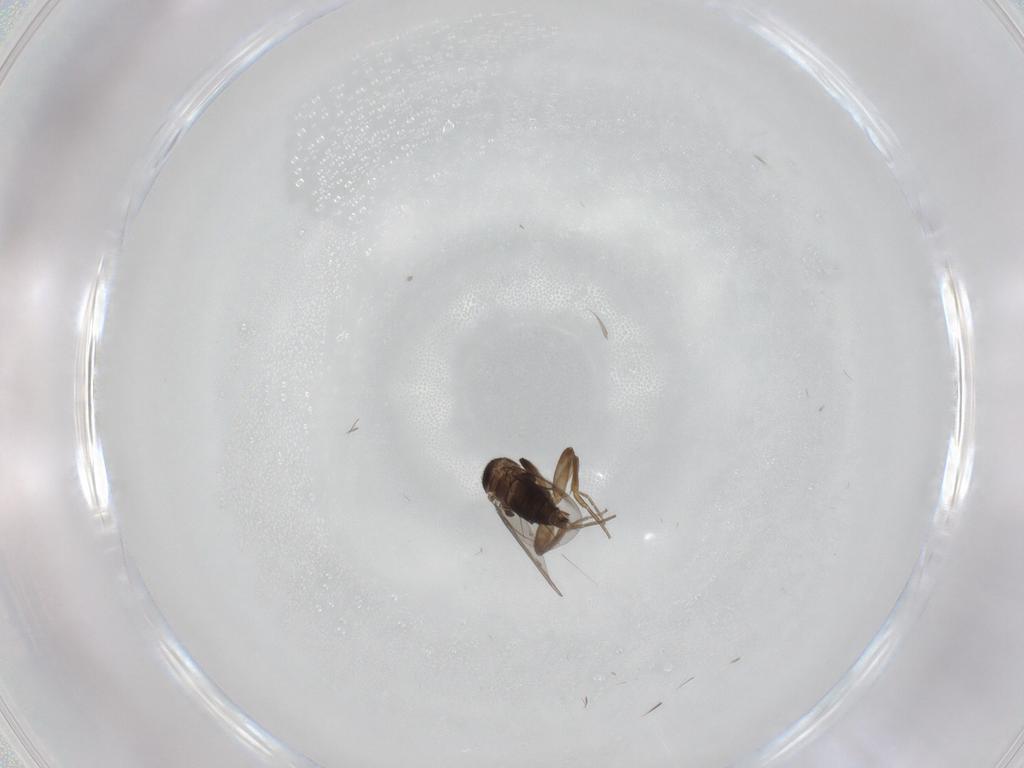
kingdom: Animalia
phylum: Arthropoda
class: Insecta
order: Diptera
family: Phoridae
